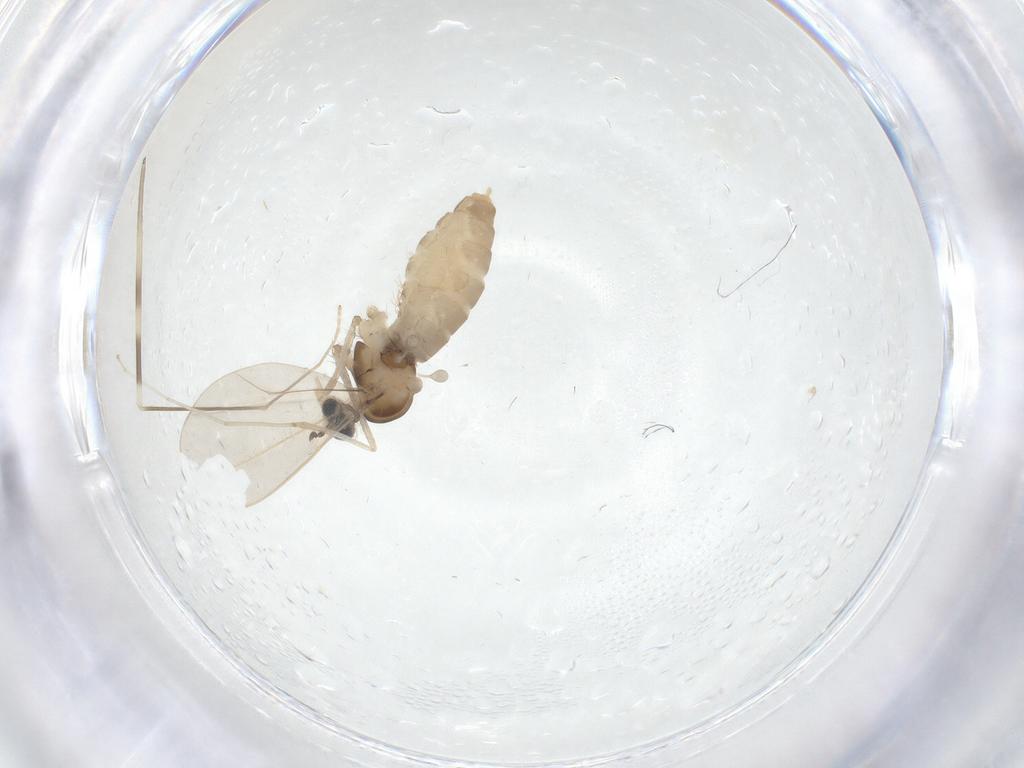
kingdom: Animalia
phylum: Arthropoda
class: Insecta
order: Diptera
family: Limoniidae
